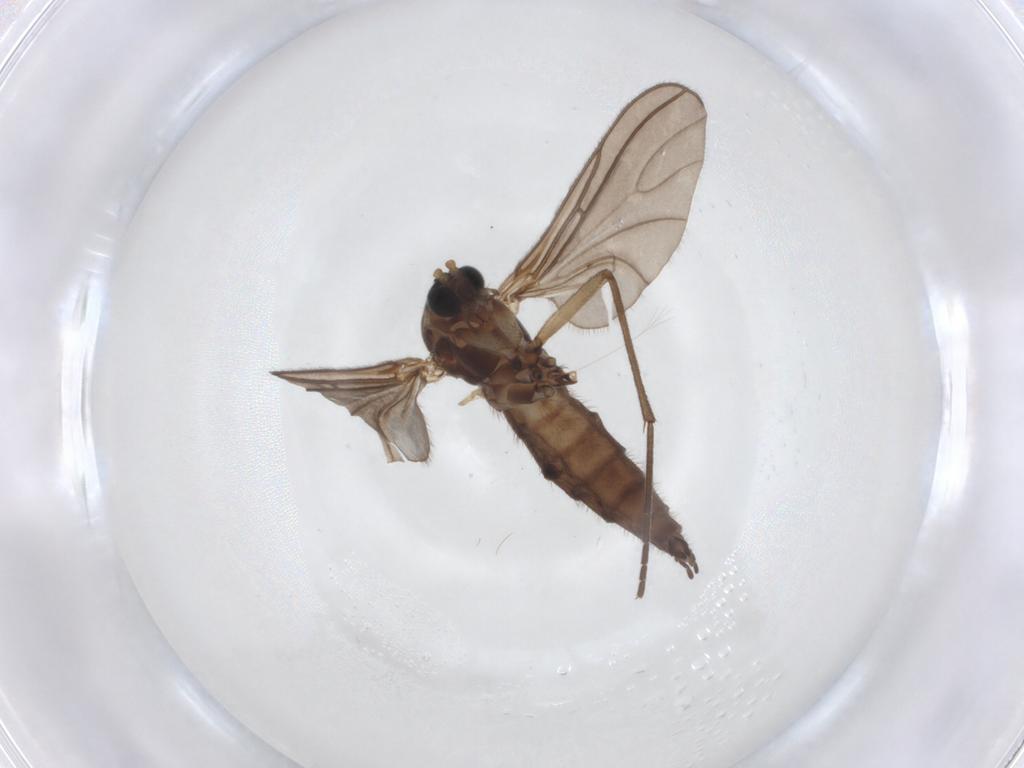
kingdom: Animalia
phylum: Arthropoda
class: Insecta
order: Diptera
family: Sciaridae
